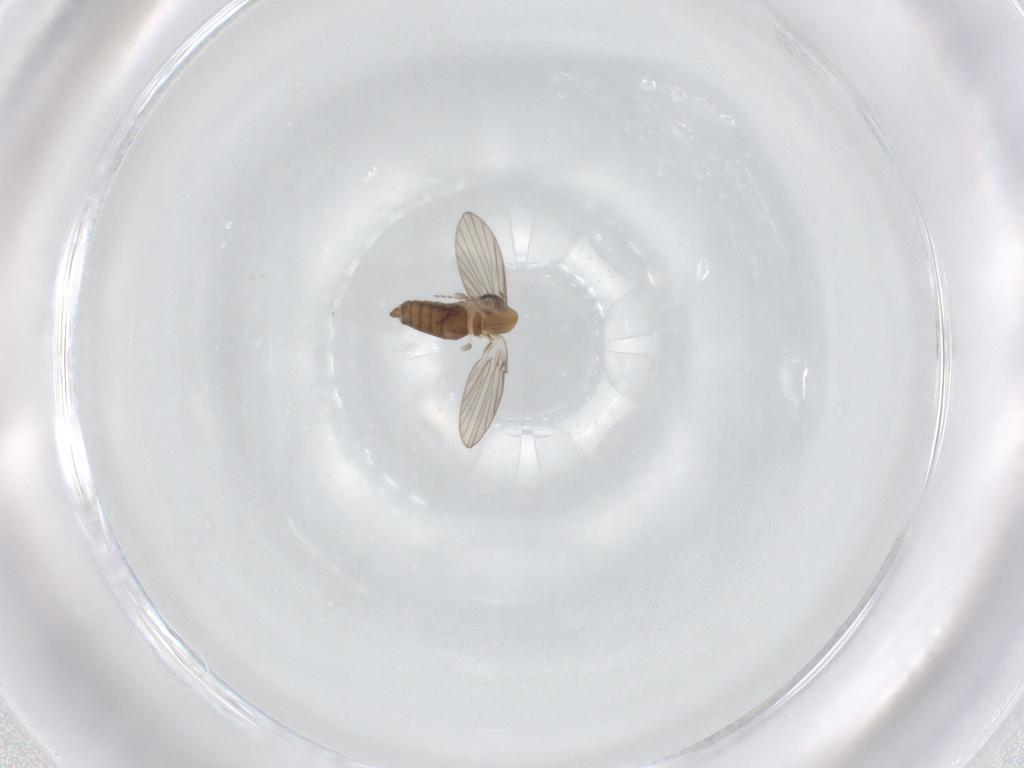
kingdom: Animalia
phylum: Arthropoda
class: Insecta
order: Diptera
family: Psychodidae
